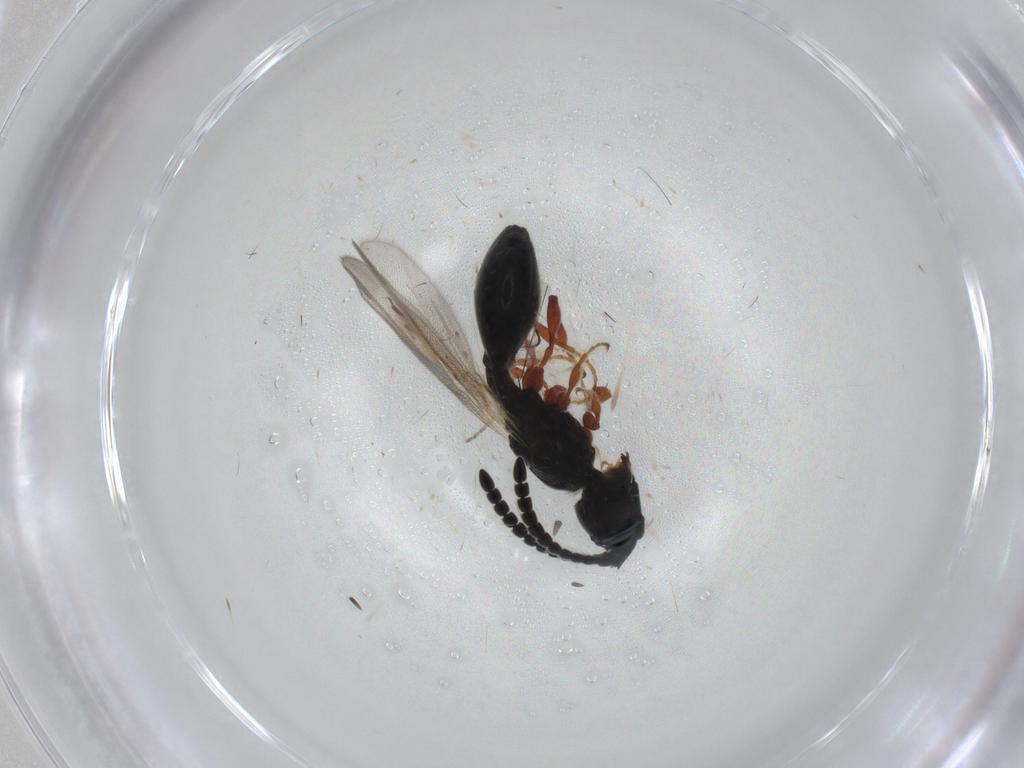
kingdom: Animalia
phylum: Arthropoda
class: Insecta
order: Hymenoptera
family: Diapriidae
